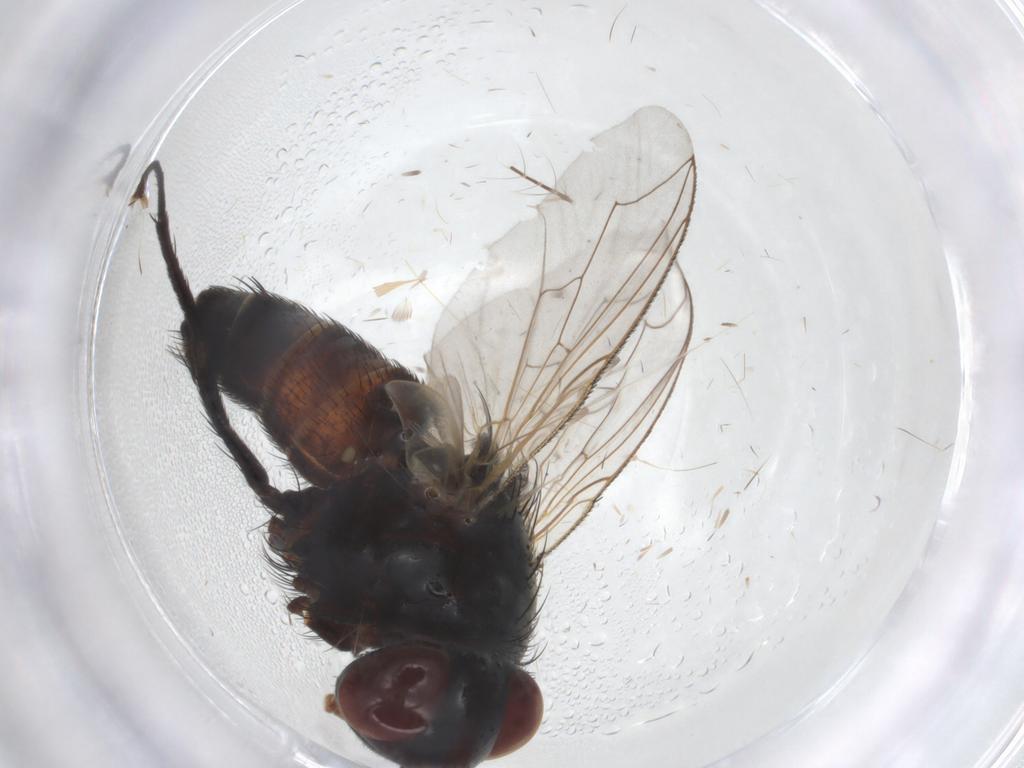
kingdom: Animalia
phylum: Arthropoda
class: Insecta
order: Diptera
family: Sarcophagidae
